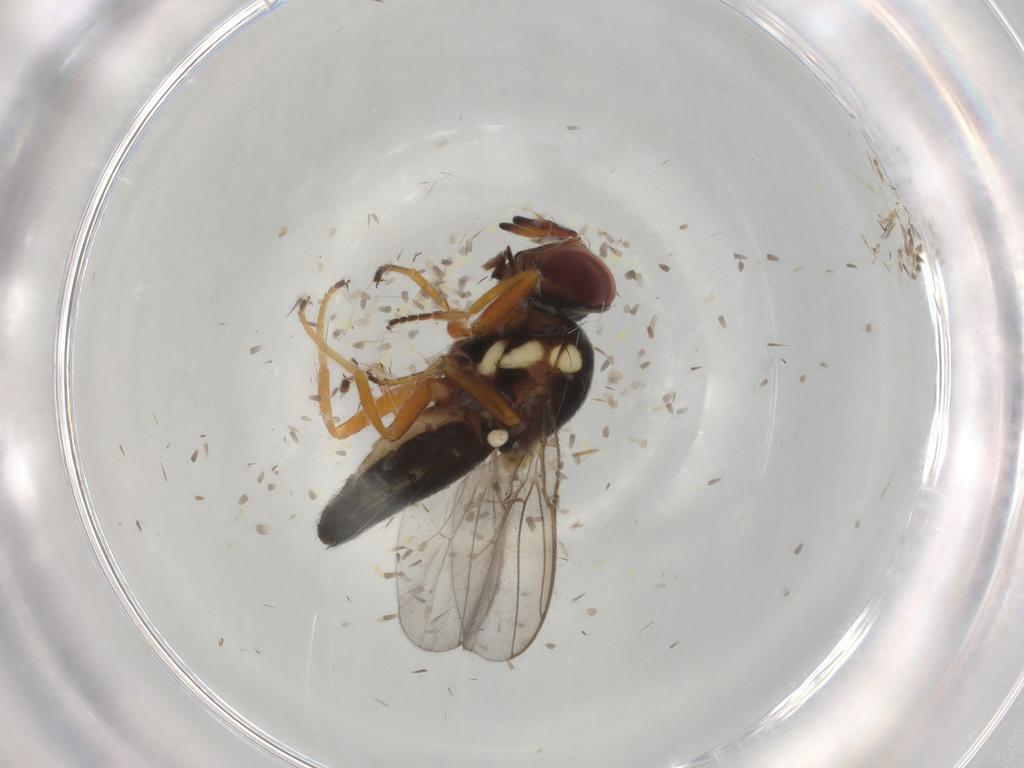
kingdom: Animalia
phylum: Arthropoda
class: Insecta
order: Diptera
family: Chloropidae
